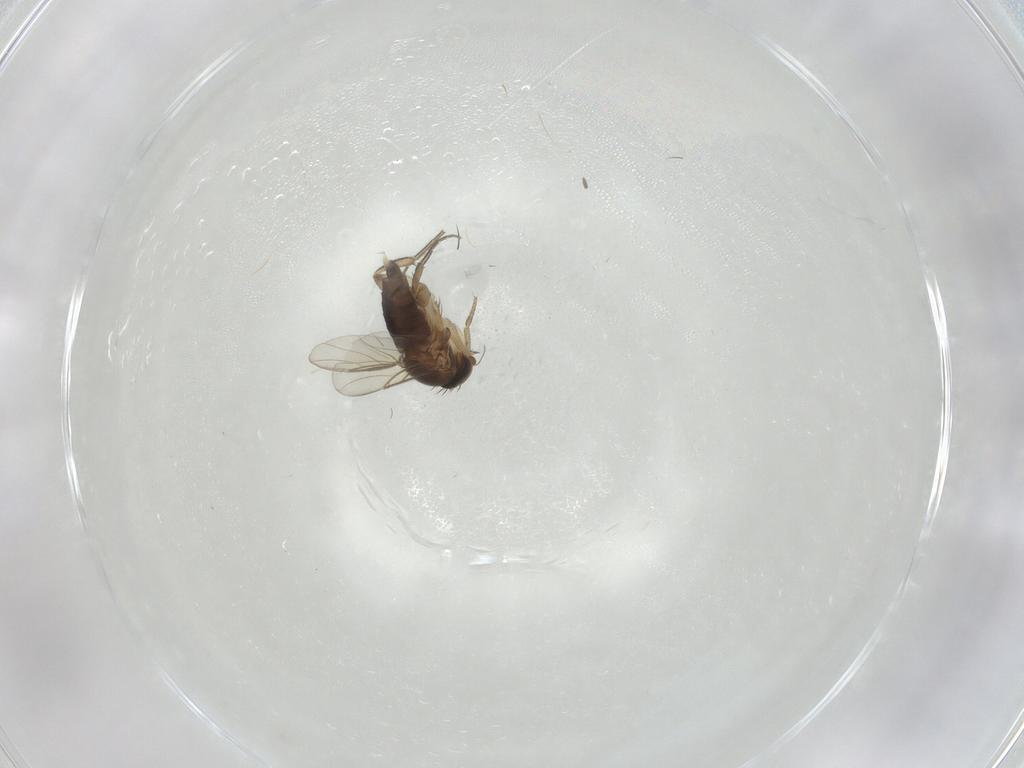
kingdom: Animalia
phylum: Arthropoda
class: Insecta
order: Diptera
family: Phoridae
